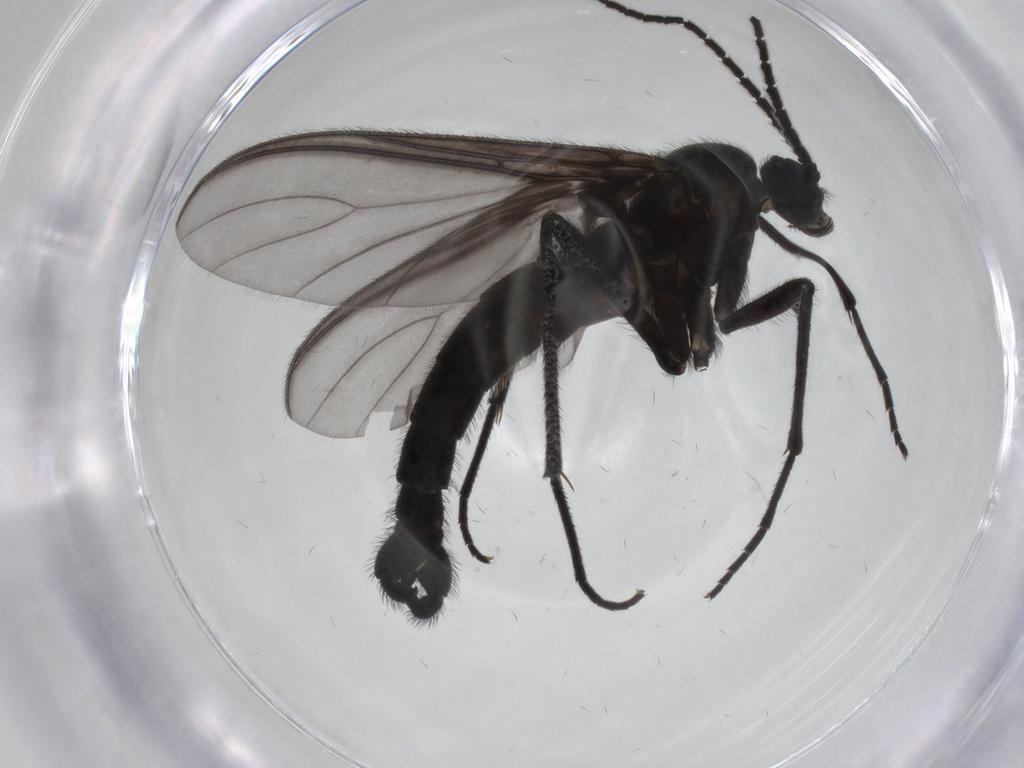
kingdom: Animalia
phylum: Arthropoda
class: Insecta
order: Diptera
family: Sciaridae
